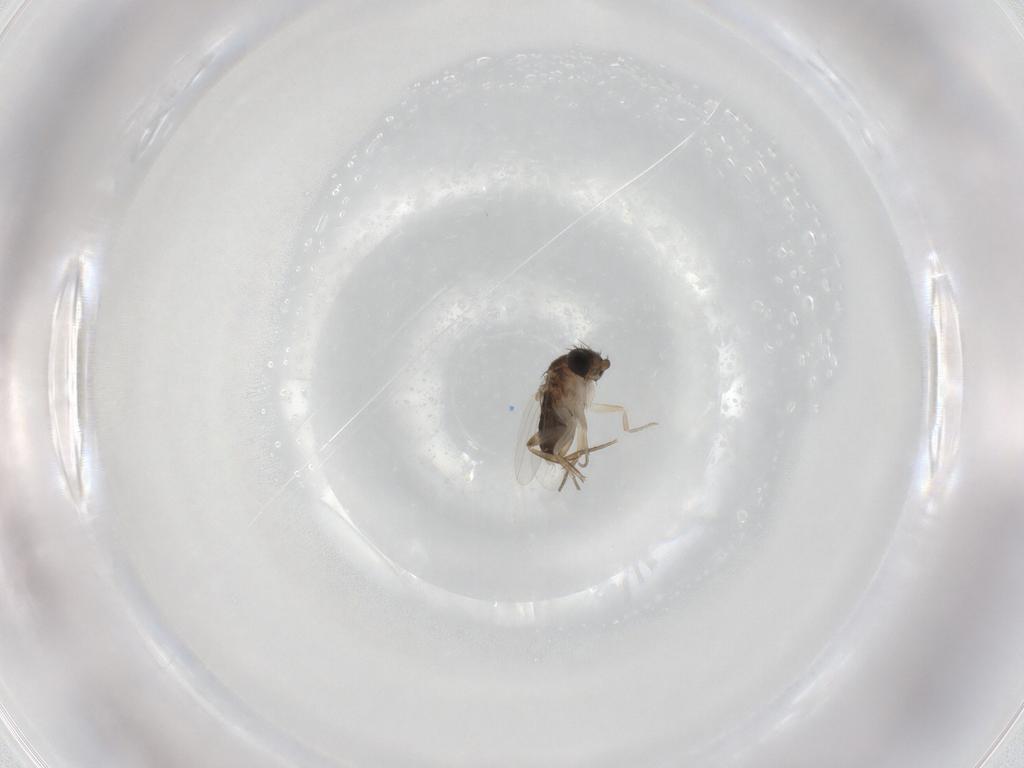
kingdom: Animalia
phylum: Arthropoda
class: Insecta
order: Diptera
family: Phoridae
